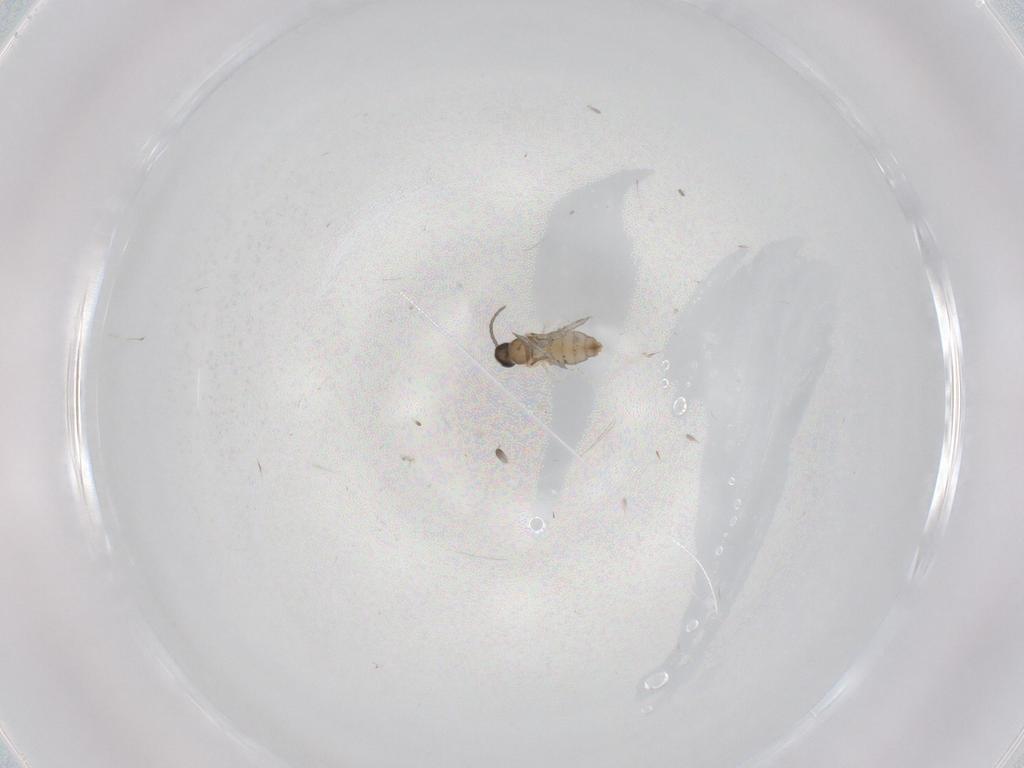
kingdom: Animalia
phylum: Arthropoda
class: Insecta
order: Diptera
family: Cecidomyiidae
